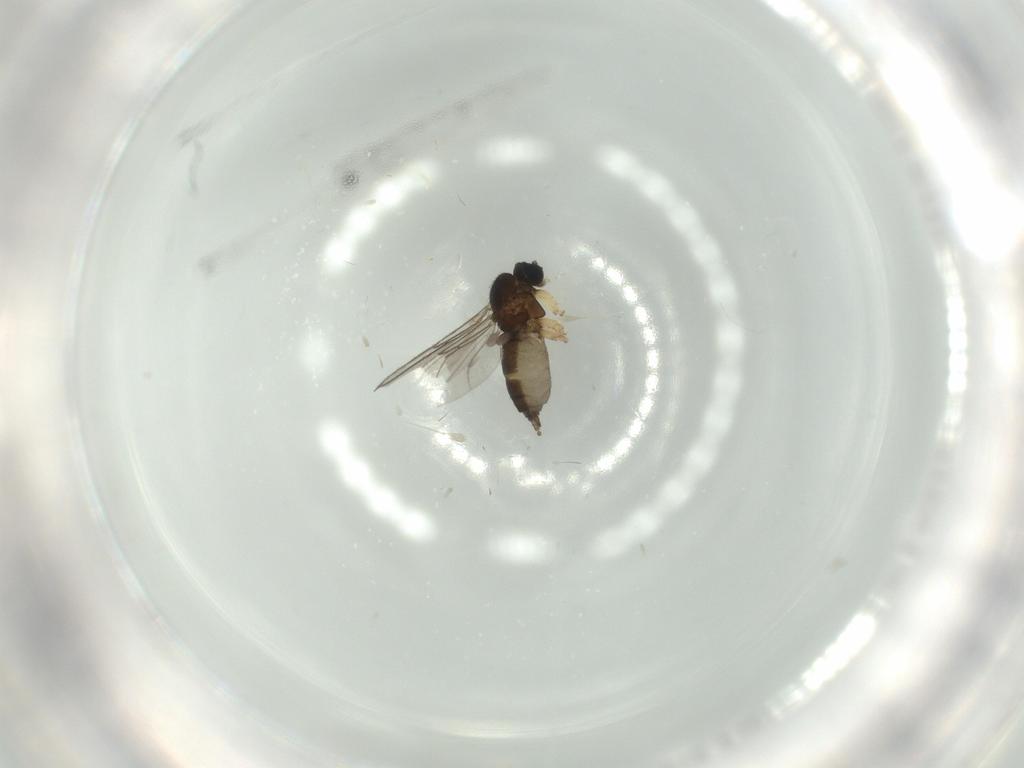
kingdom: Animalia
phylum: Arthropoda
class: Insecta
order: Diptera
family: Sciaridae
